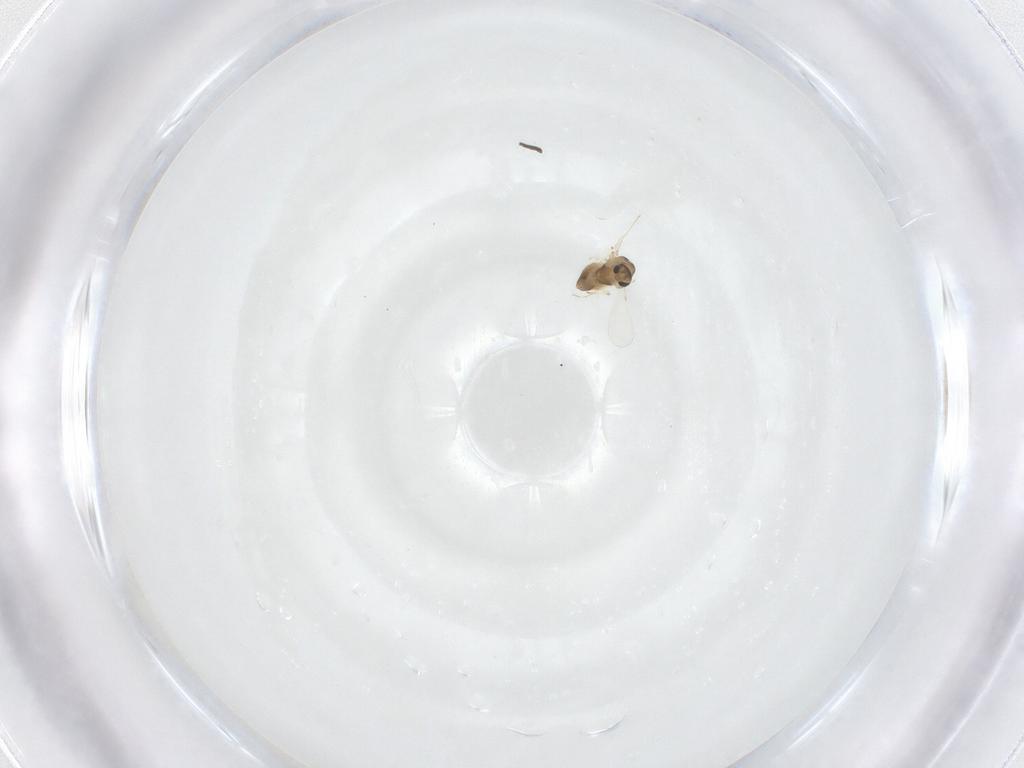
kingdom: Animalia
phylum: Arthropoda
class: Insecta
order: Diptera
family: Chironomidae
